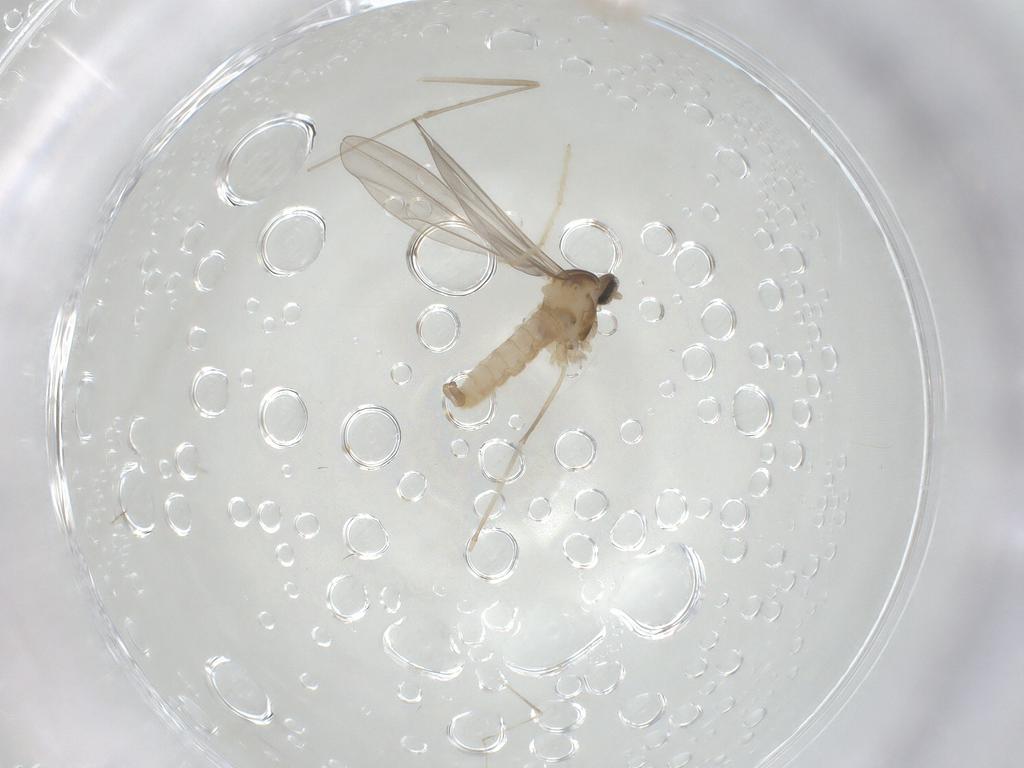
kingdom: Animalia
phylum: Arthropoda
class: Insecta
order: Diptera
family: Cecidomyiidae
